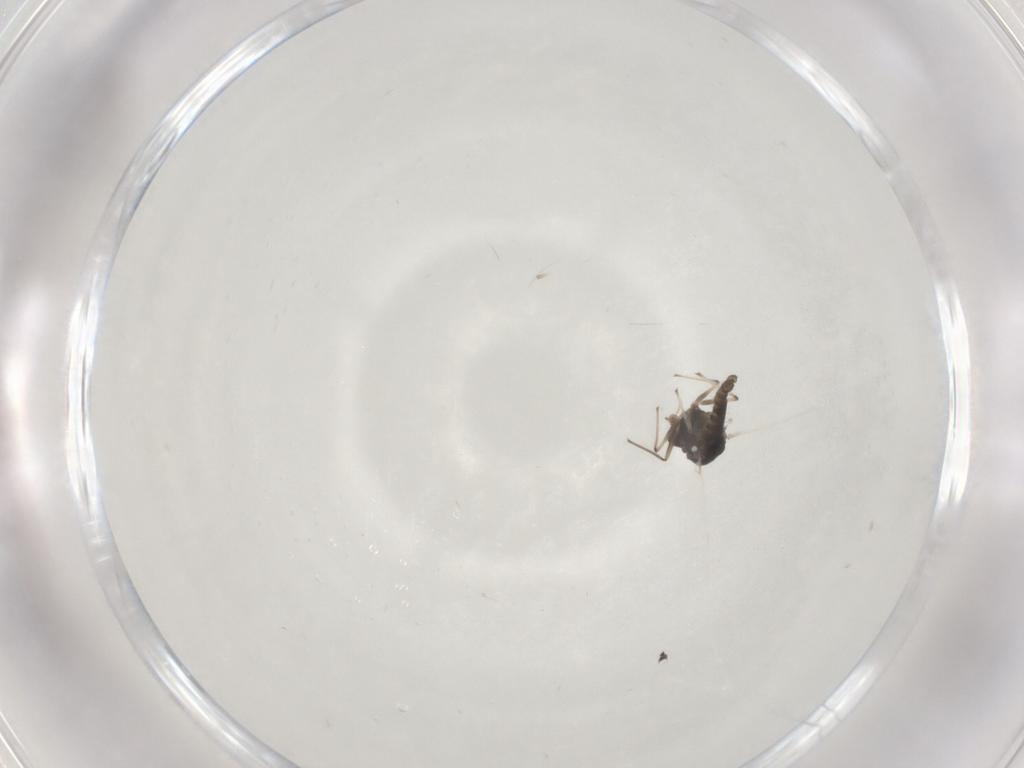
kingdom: Animalia
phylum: Arthropoda
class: Insecta
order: Diptera
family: Chironomidae
